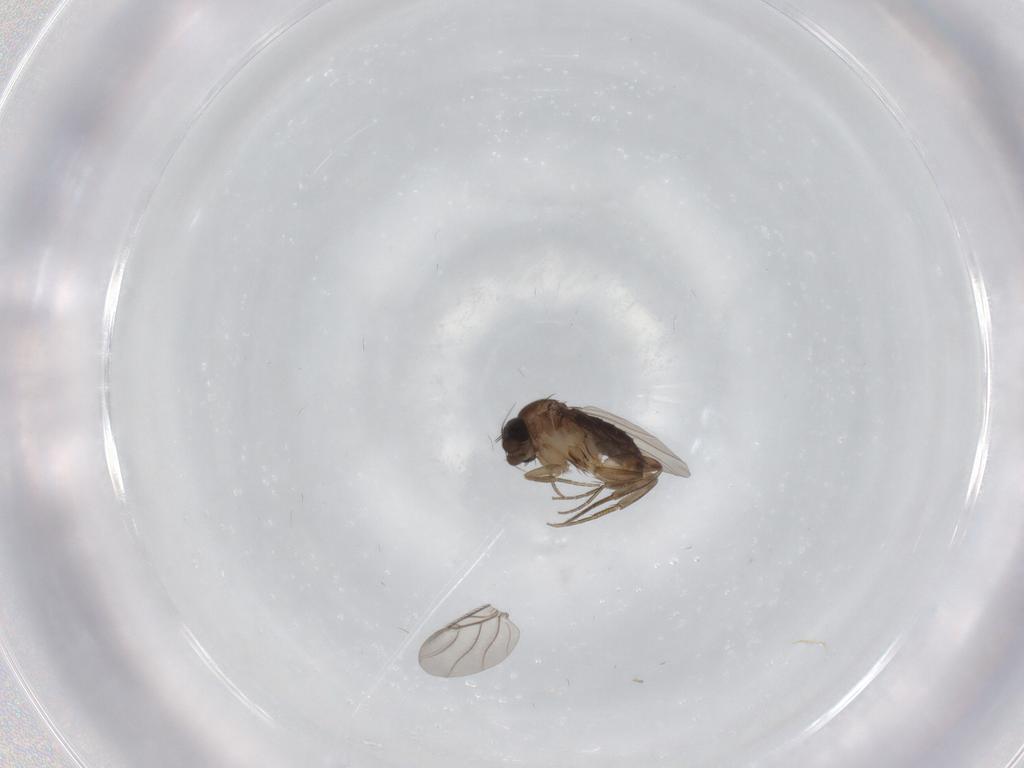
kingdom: Animalia
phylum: Arthropoda
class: Insecta
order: Diptera
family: Phoridae
